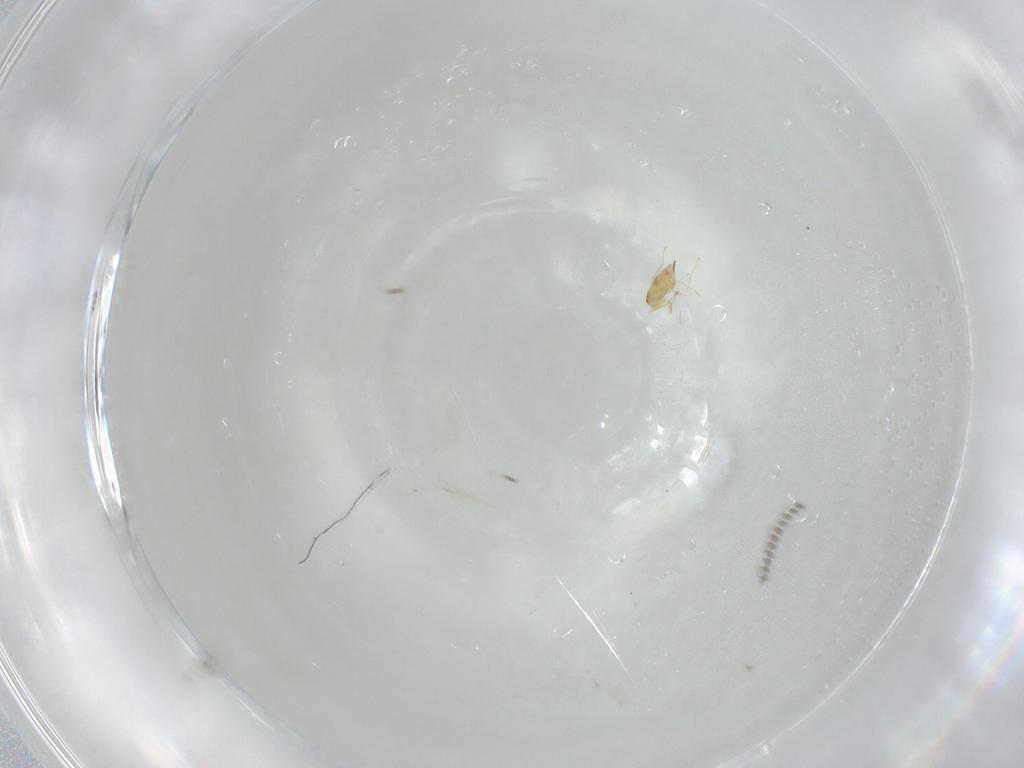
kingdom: Animalia
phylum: Arthropoda
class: Insecta
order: Hymenoptera
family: Mymaridae
